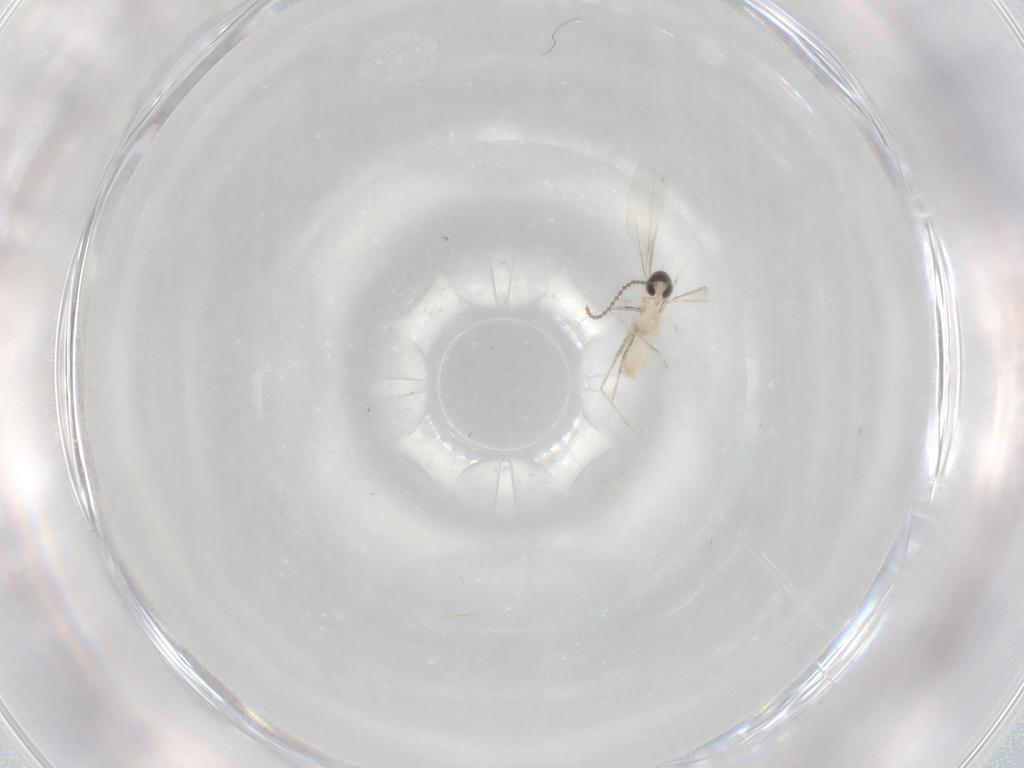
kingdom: Animalia
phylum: Arthropoda
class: Insecta
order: Diptera
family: Cecidomyiidae
